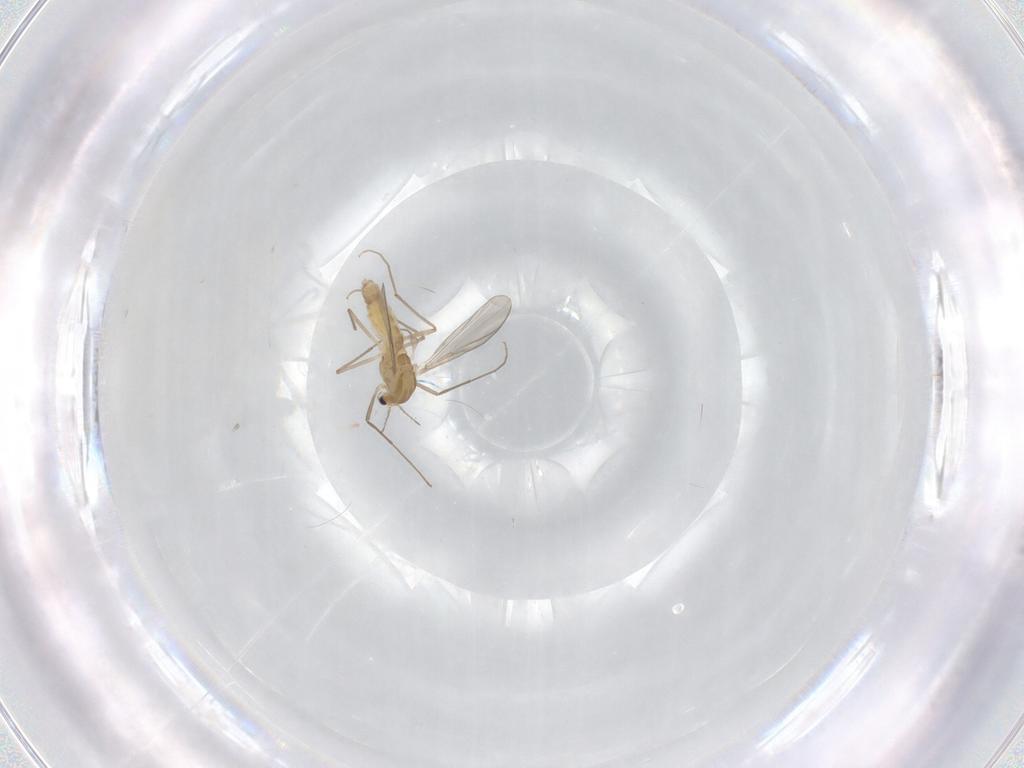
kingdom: Animalia
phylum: Arthropoda
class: Insecta
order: Diptera
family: Chironomidae
